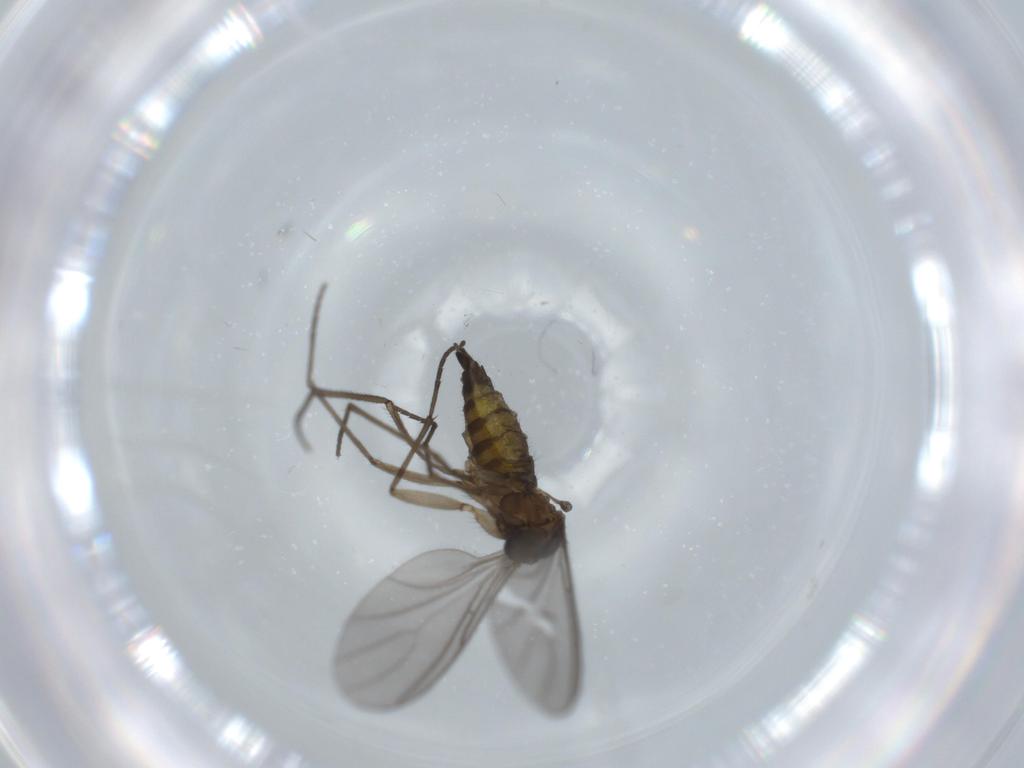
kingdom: Animalia
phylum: Arthropoda
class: Insecta
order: Diptera
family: Sciaridae
